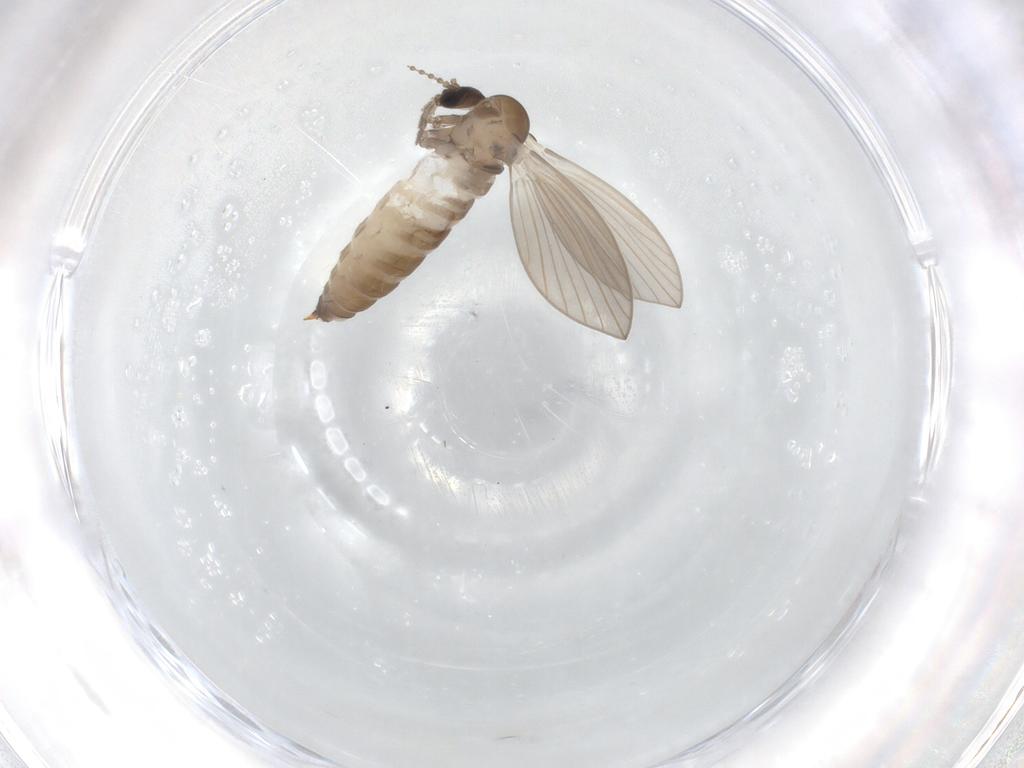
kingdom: Animalia
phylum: Arthropoda
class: Insecta
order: Diptera
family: Psychodidae
